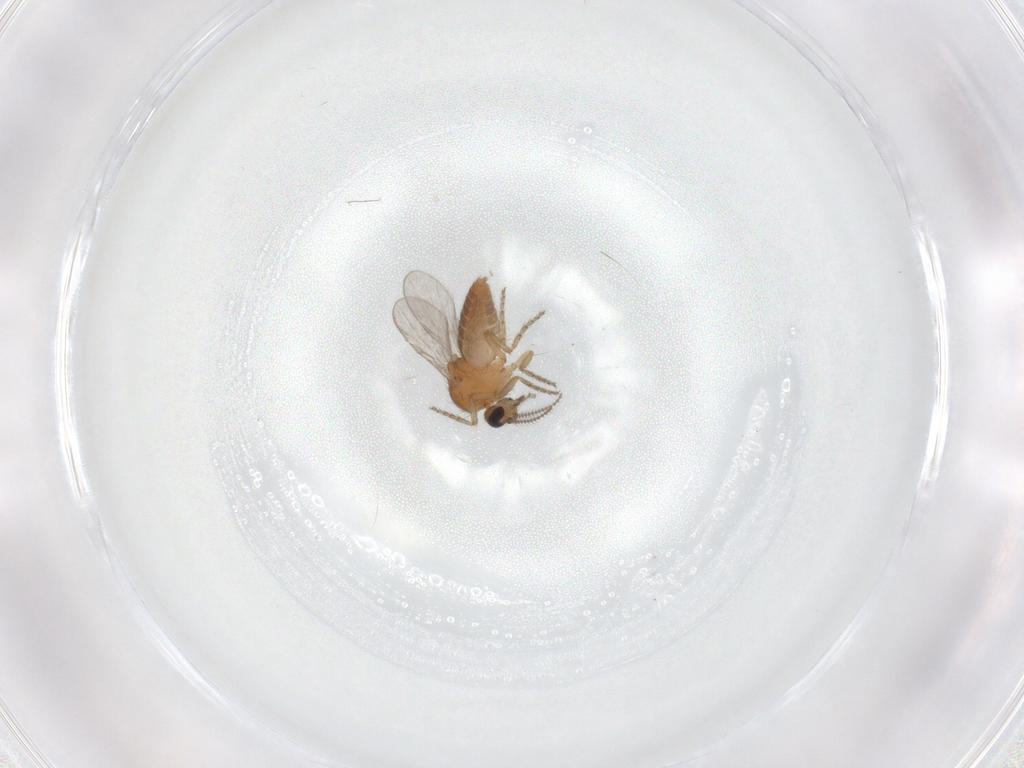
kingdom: Animalia
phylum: Arthropoda
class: Insecta
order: Diptera
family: Ceratopogonidae
